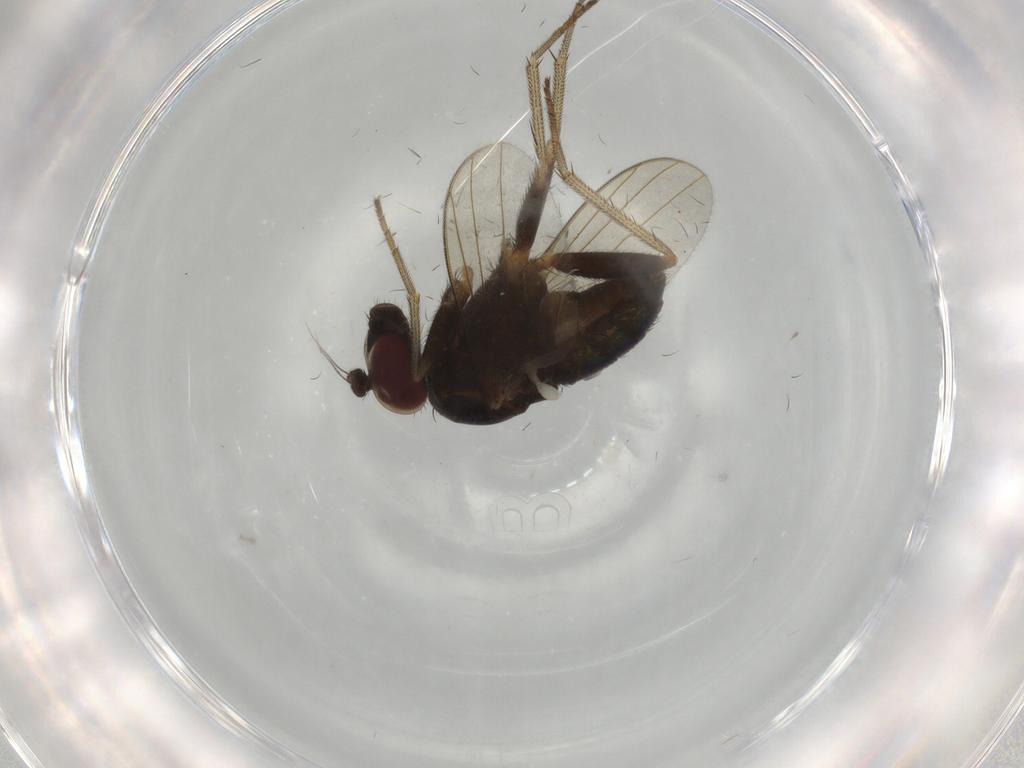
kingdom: Animalia
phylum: Arthropoda
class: Insecta
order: Diptera
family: Dolichopodidae
